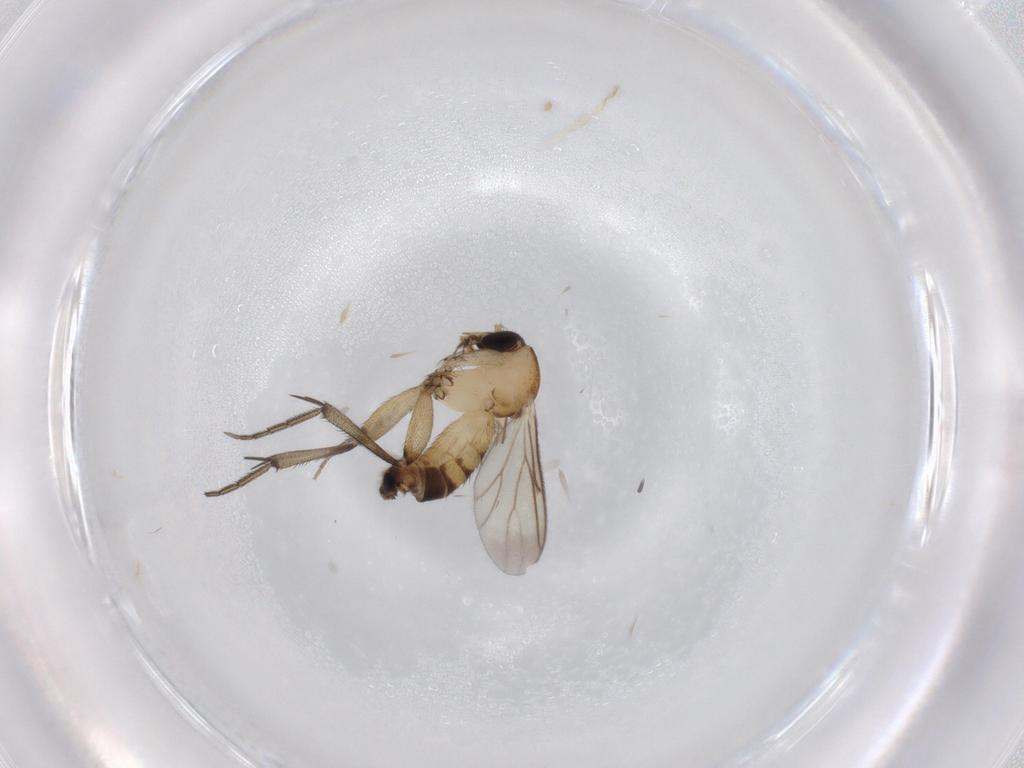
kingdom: Animalia
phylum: Arthropoda
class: Insecta
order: Diptera
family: Mycetophilidae
